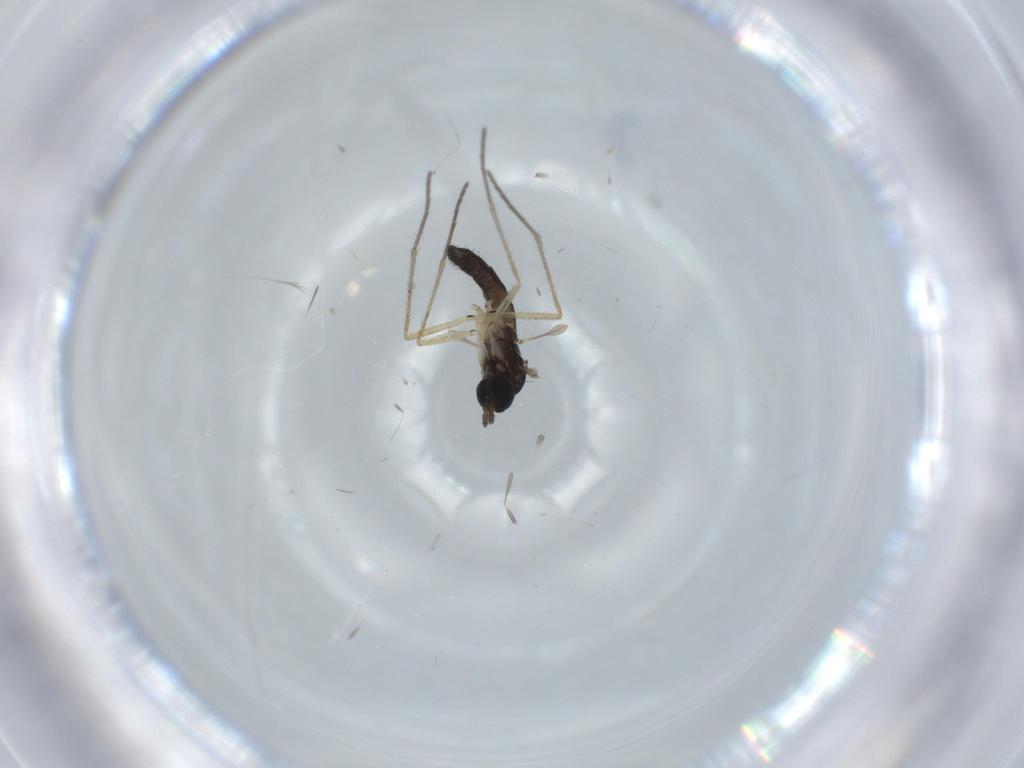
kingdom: Animalia
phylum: Arthropoda
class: Insecta
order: Diptera
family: Sciaridae
